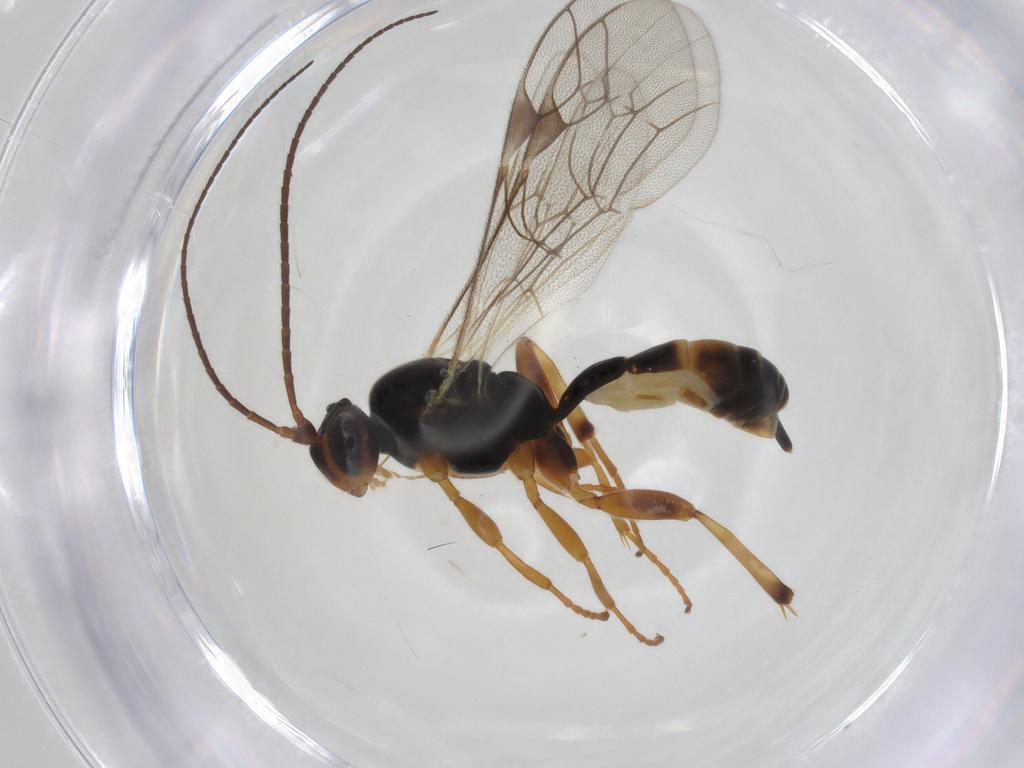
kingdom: Animalia
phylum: Arthropoda
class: Insecta
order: Hymenoptera
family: Ichneumonidae
